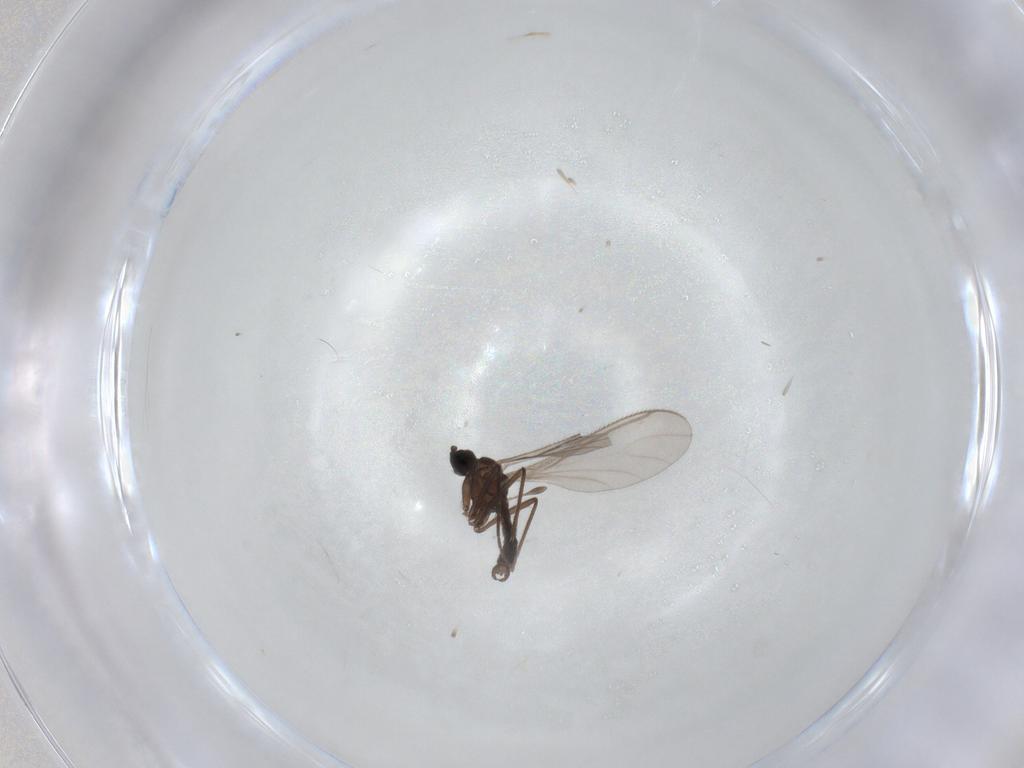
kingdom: Animalia
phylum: Arthropoda
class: Insecta
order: Diptera
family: Sciaridae
